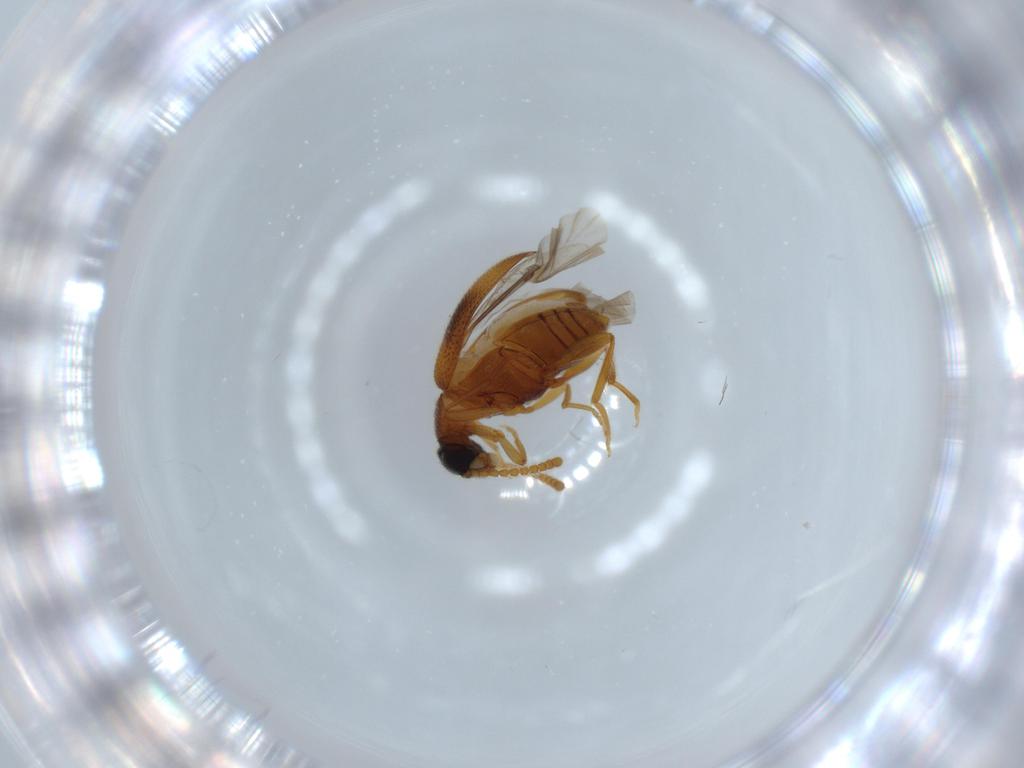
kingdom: Animalia
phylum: Arthropoda
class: Insecta
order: Coleoptera
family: Aderidae
